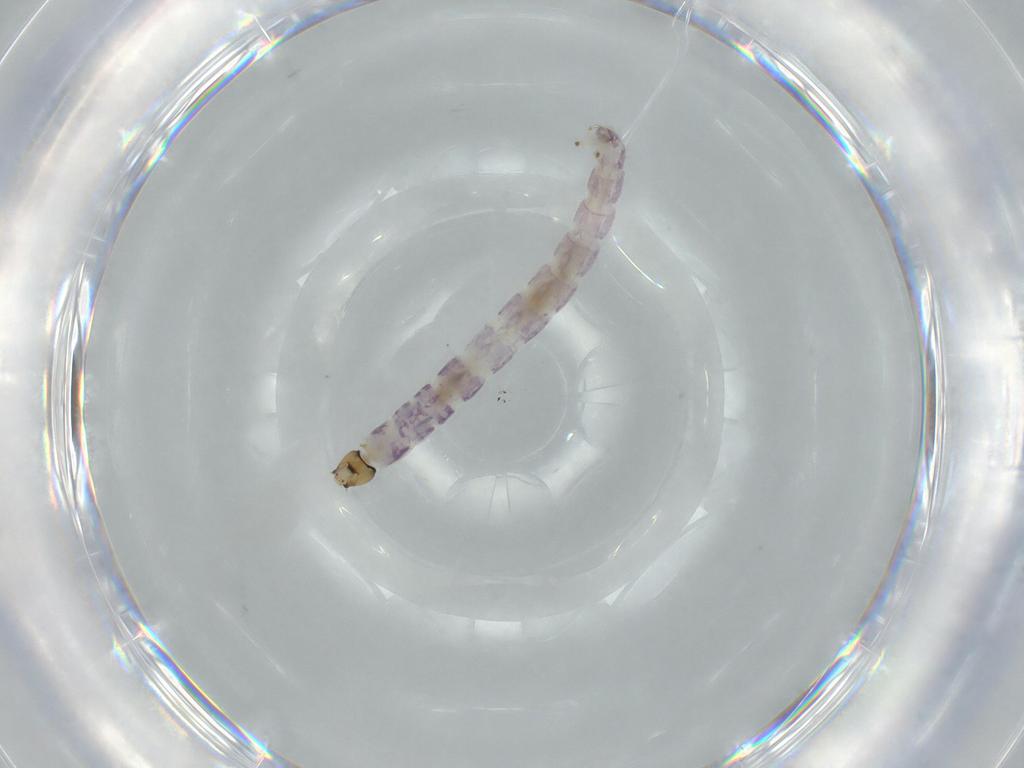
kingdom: Animalia
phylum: Arthropoda
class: Insecta
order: Diptera
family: Chironomidae
